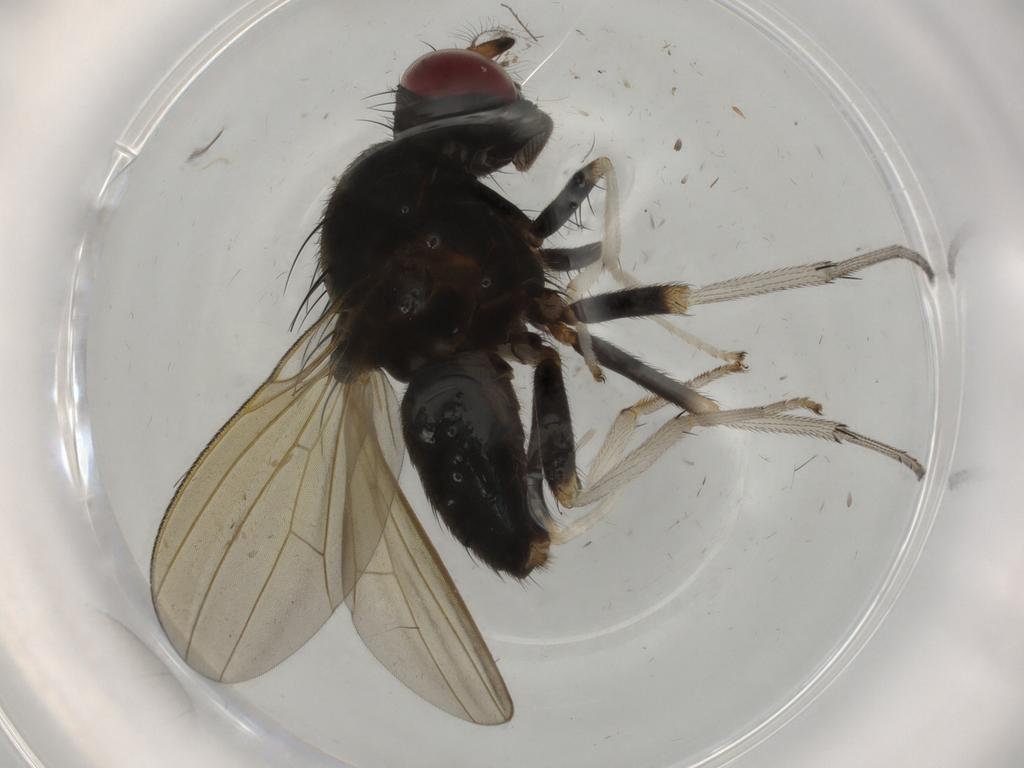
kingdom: Animalia
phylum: Arthropoda
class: Insecta
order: Diptera
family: Lauxaniidae
